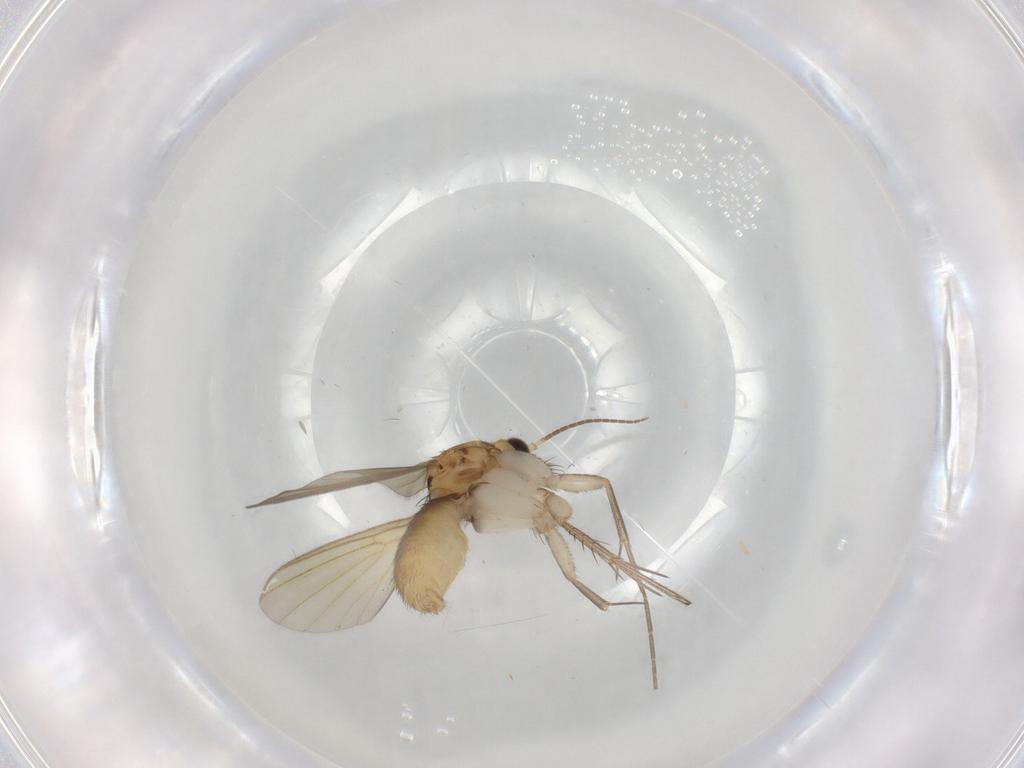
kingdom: Animalia
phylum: Arthropoda
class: Insecta
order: Diptera
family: Mycetophilidae
